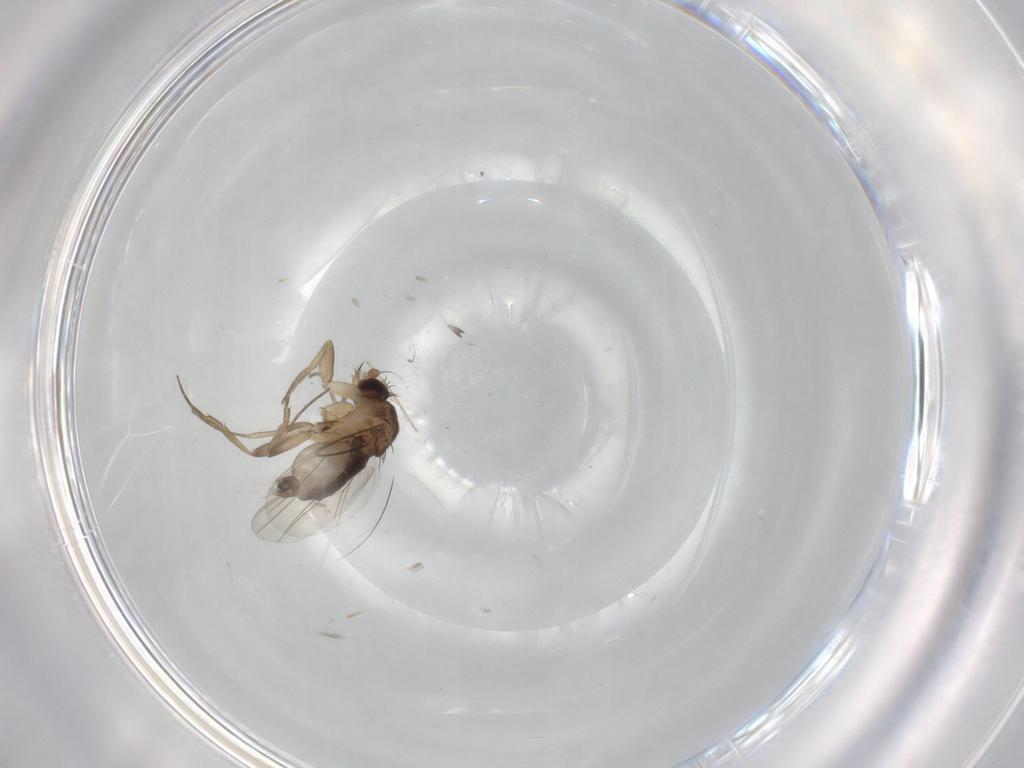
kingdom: Animalia
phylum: Arthropoda
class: Insecta
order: Diptera
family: Phoridae
